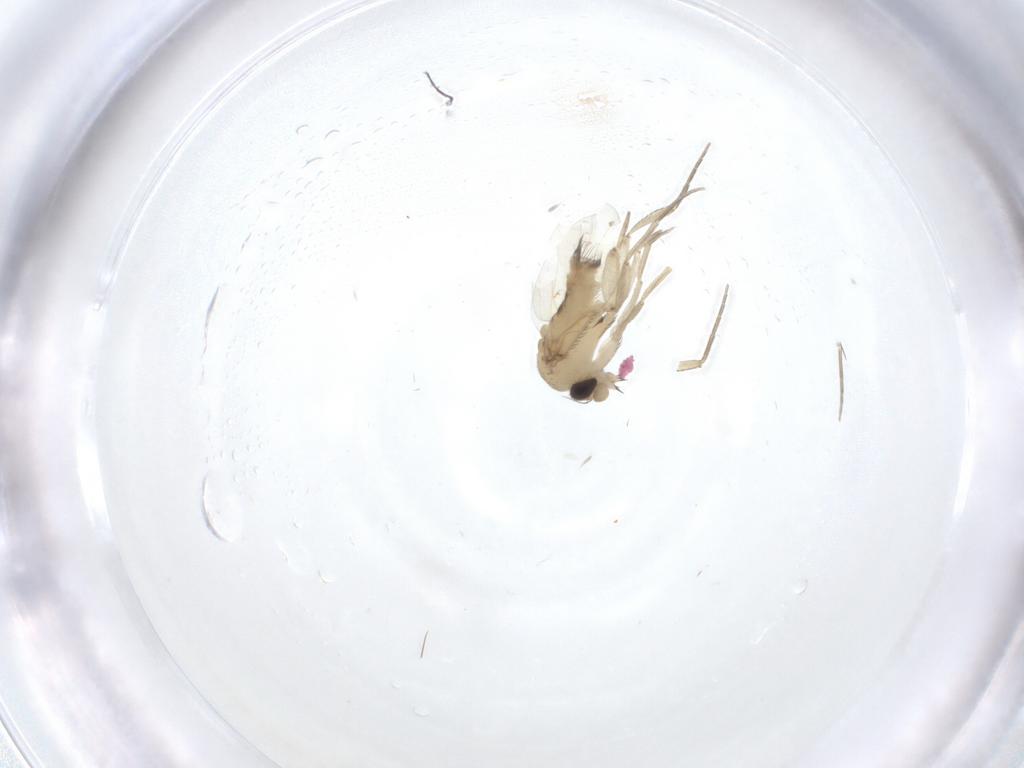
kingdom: Animalia
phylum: Arthropoda
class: Insecta
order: Diptera
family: Phoridae
